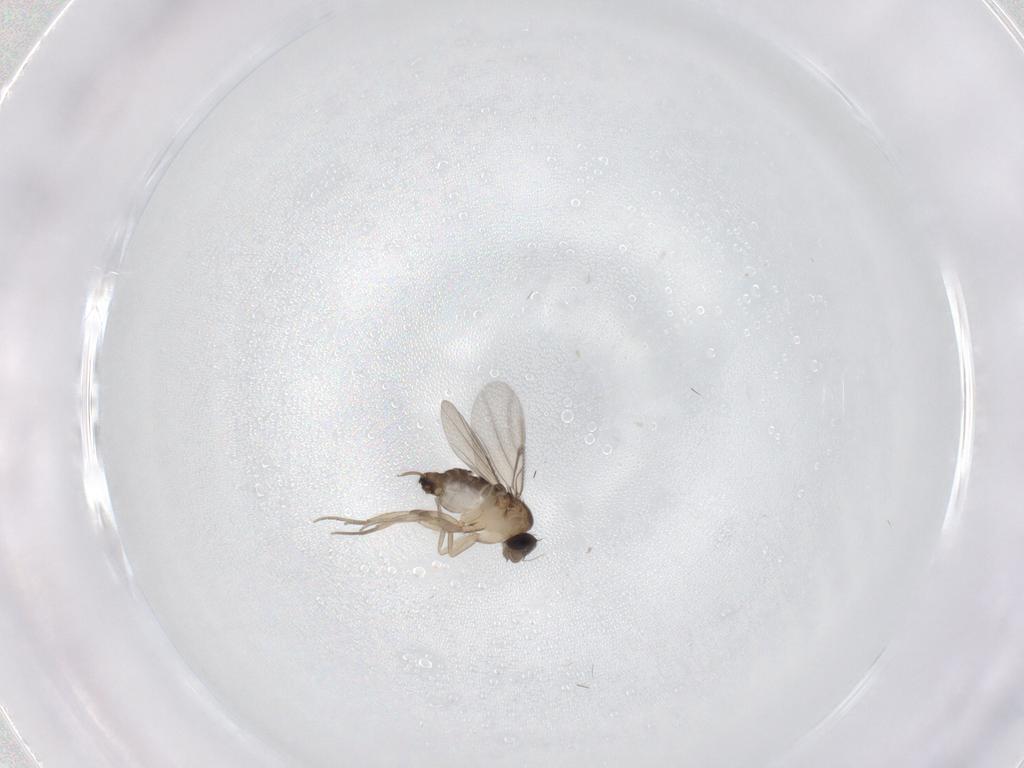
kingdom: Animalia
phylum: Arthropoda
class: Insecta
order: Diptera
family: Phoridae
